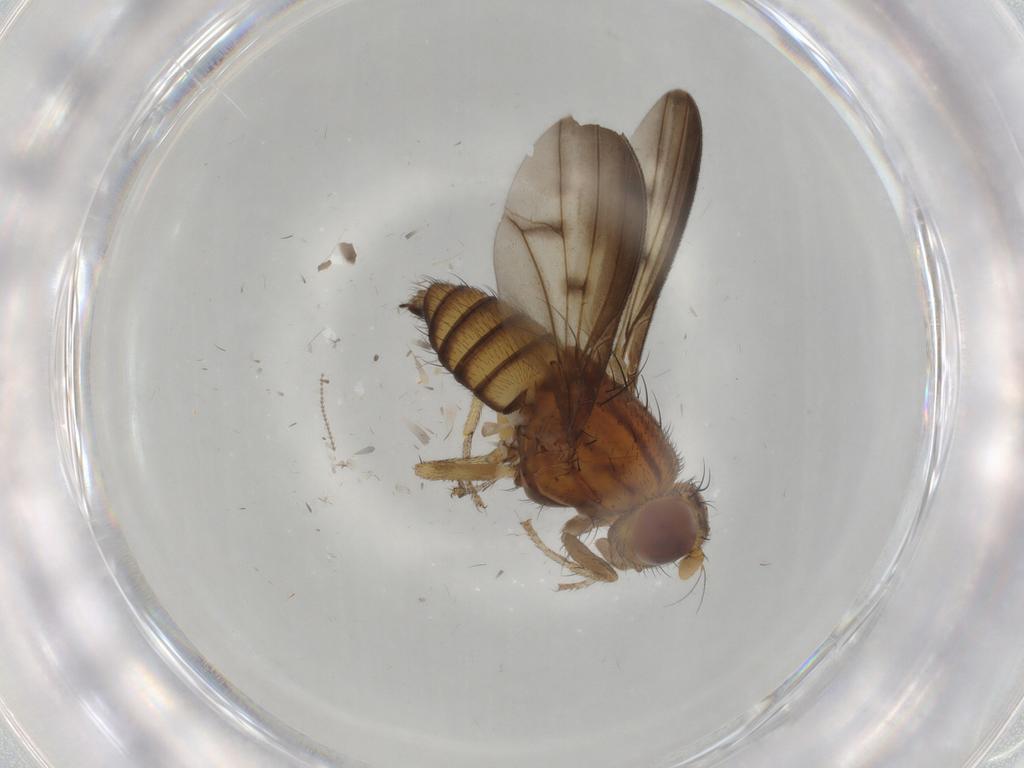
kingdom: Animalia
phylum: Arthropoda
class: Insecta
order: Diptera
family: Lauxaniidae
